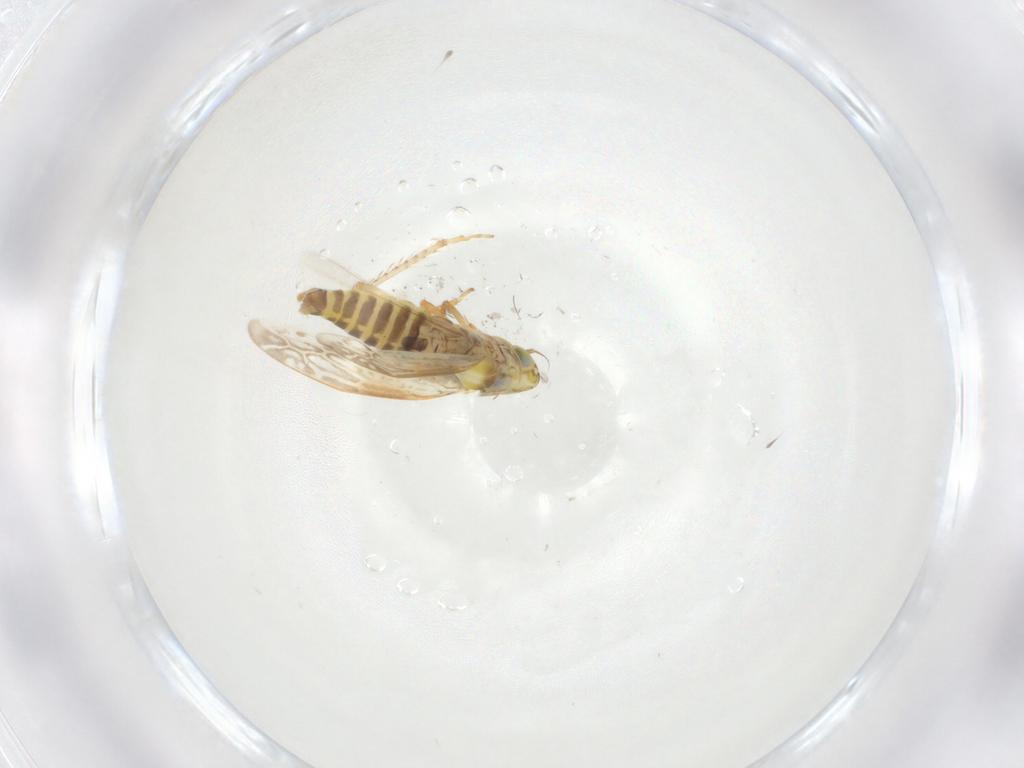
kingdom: Animalia
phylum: Arthropoda
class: Insecta
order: Hemiptera
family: Cicadellidae
